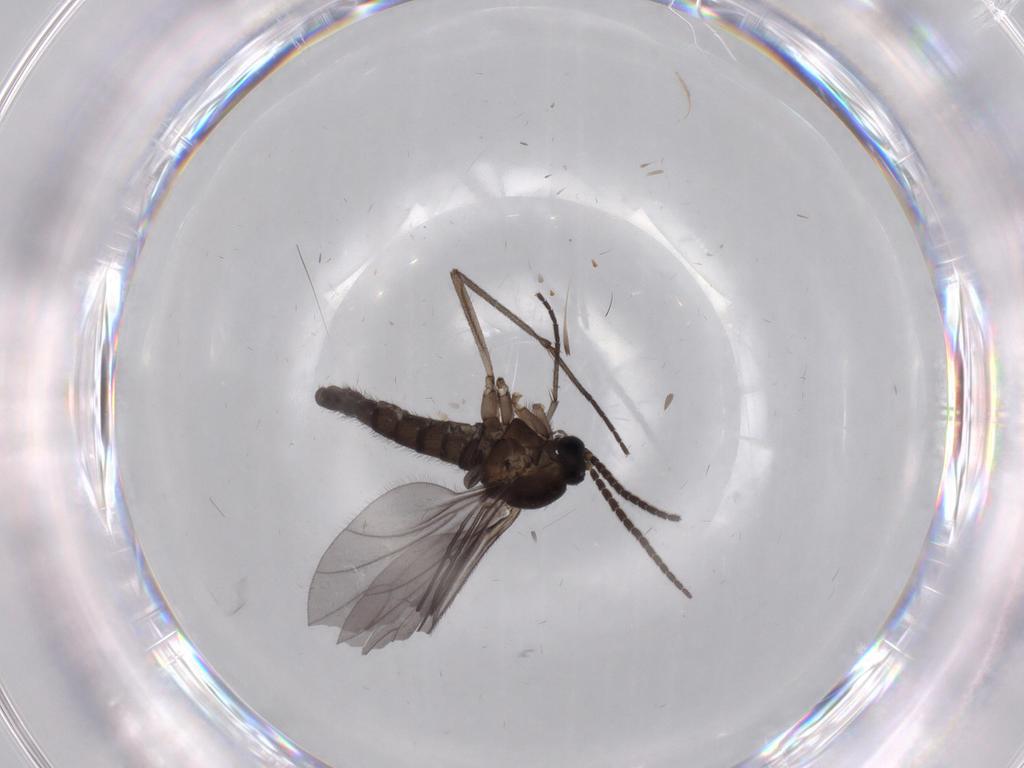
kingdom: Animalia
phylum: Arthropoda
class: Insecta
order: Diptera
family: Sciaridae
